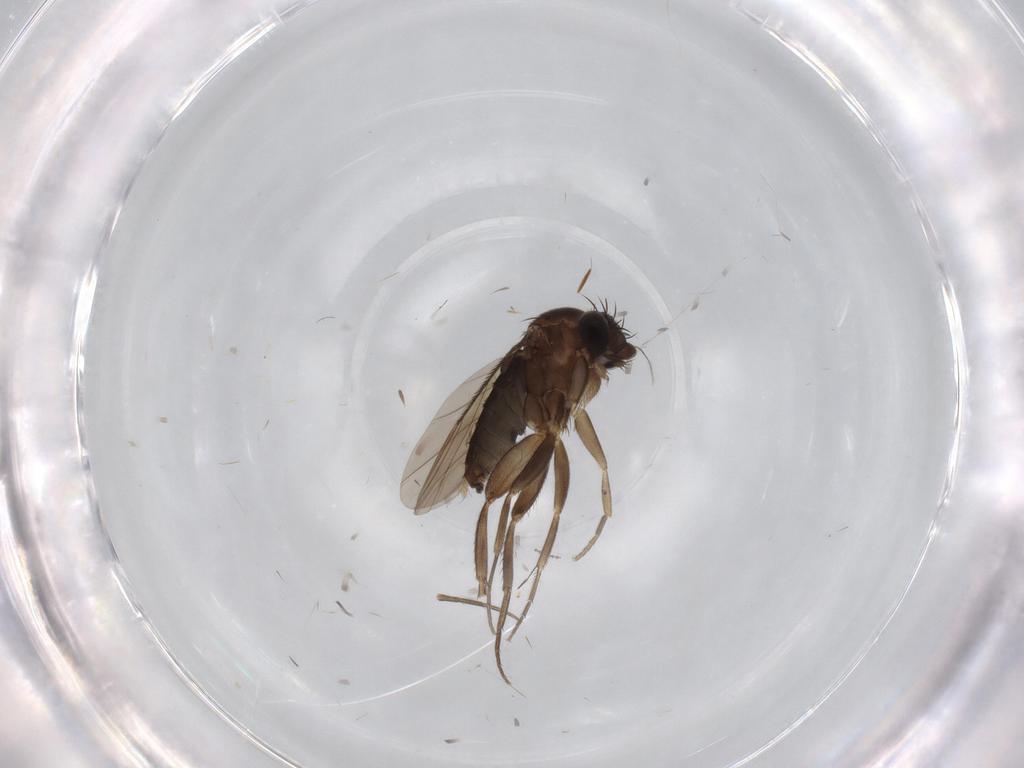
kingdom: Animalia
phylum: Arthropoda
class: Insecta
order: Diptera
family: Phoridae
